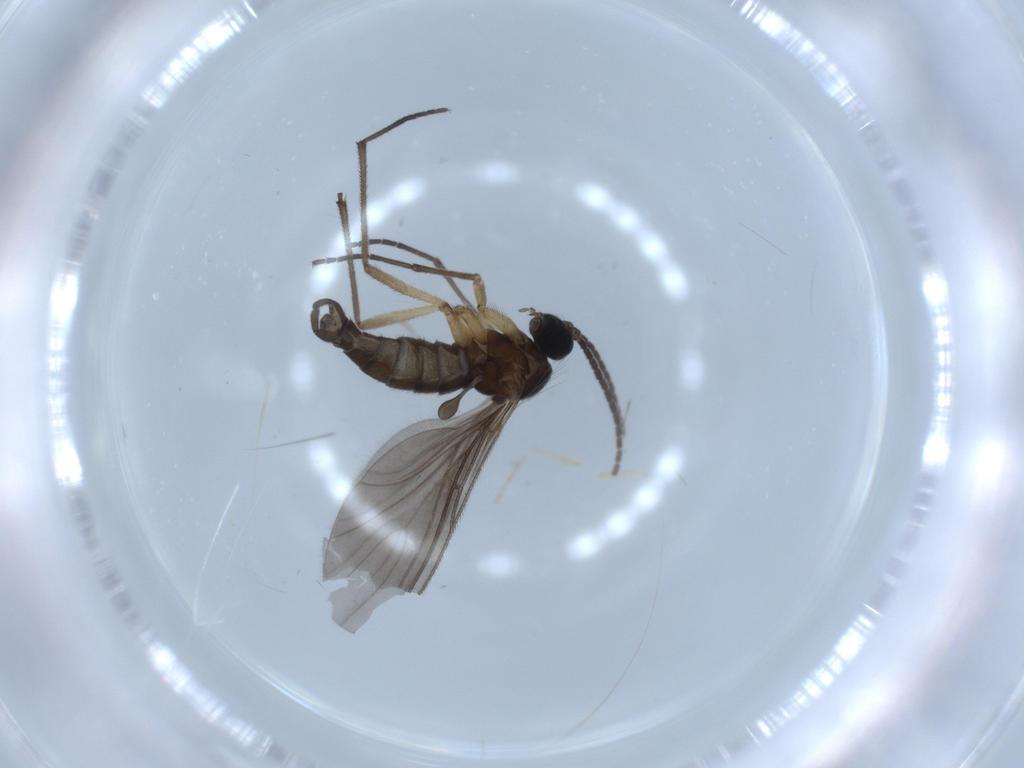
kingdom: Animalia
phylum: Arthropoda
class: Insecta
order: Diptera
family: Sciaridae
